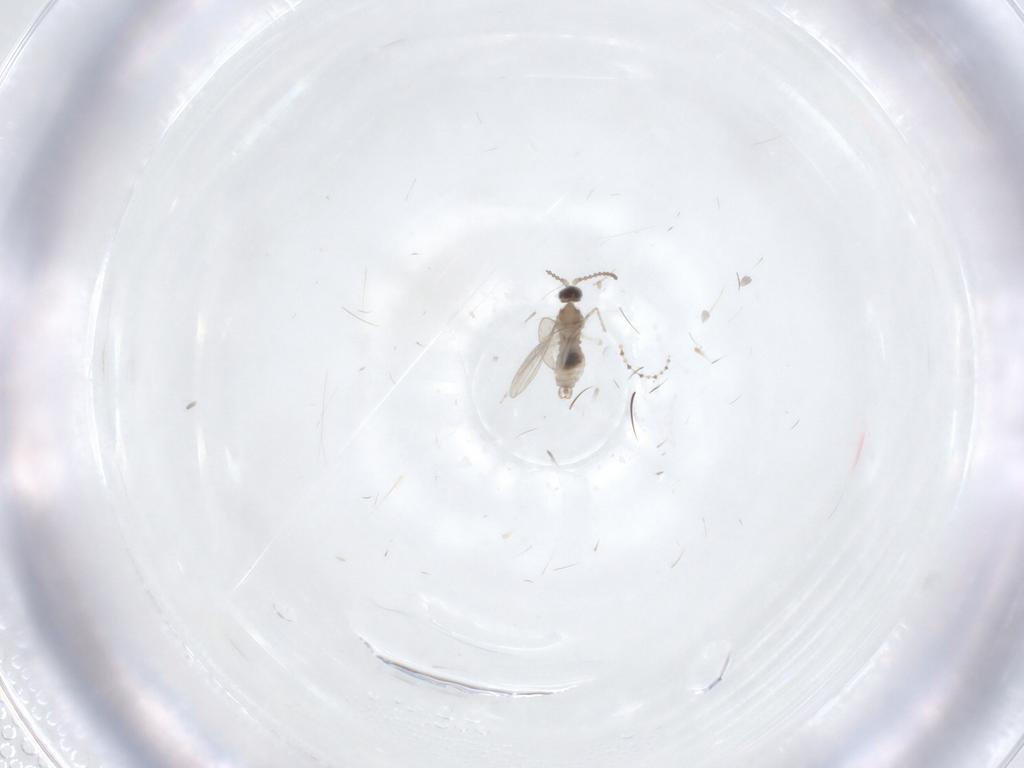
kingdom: Animalia
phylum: Arthropoda
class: Insecta
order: Diptera
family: Cecidomyiidae
